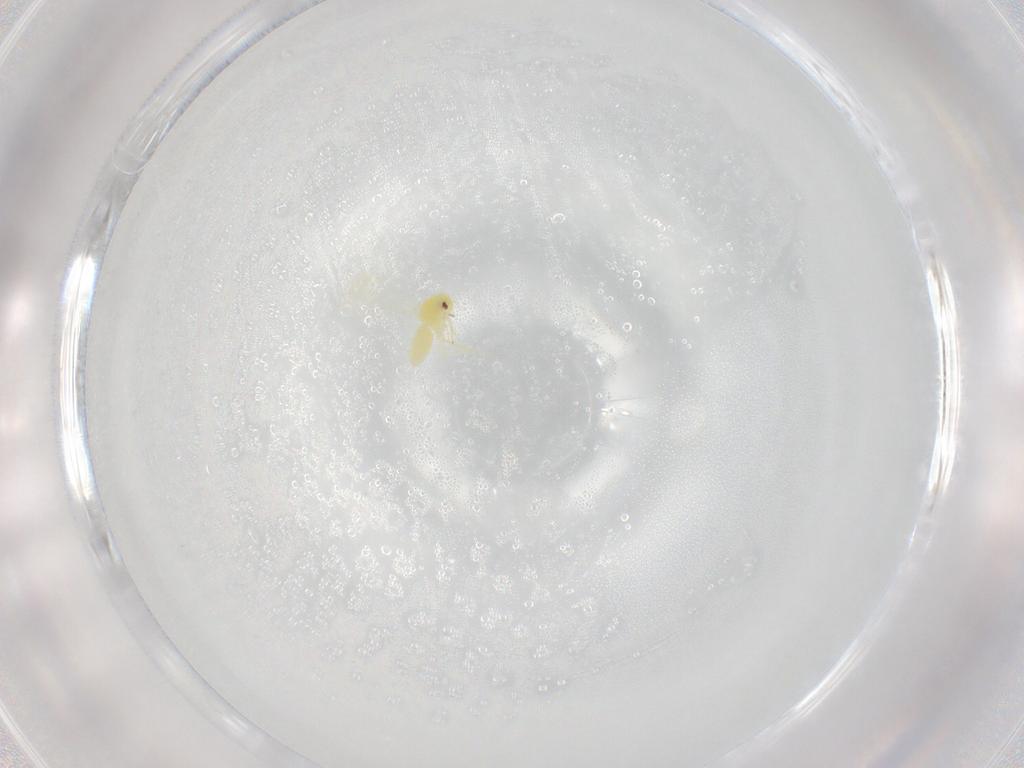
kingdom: Animalia
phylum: Arthropoda
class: Insecta
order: Hemiptera
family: Aleyrodidae
